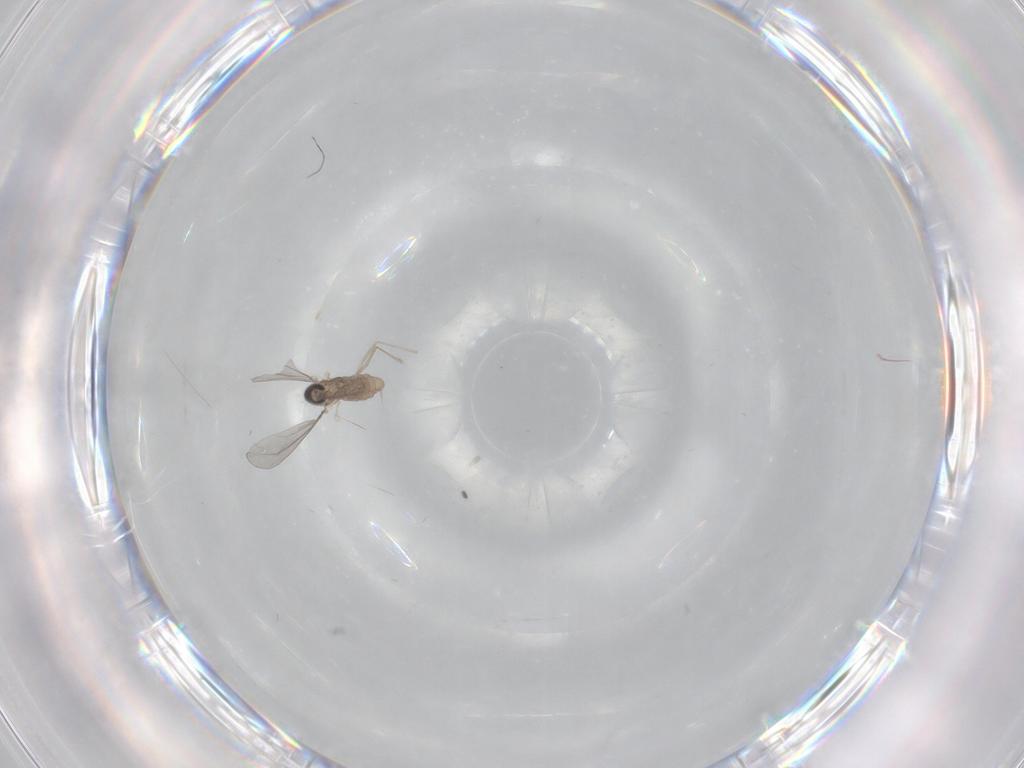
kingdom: Animalia
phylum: Arthropoda
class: Insecta
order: Diptera
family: Cecidomyiidae
